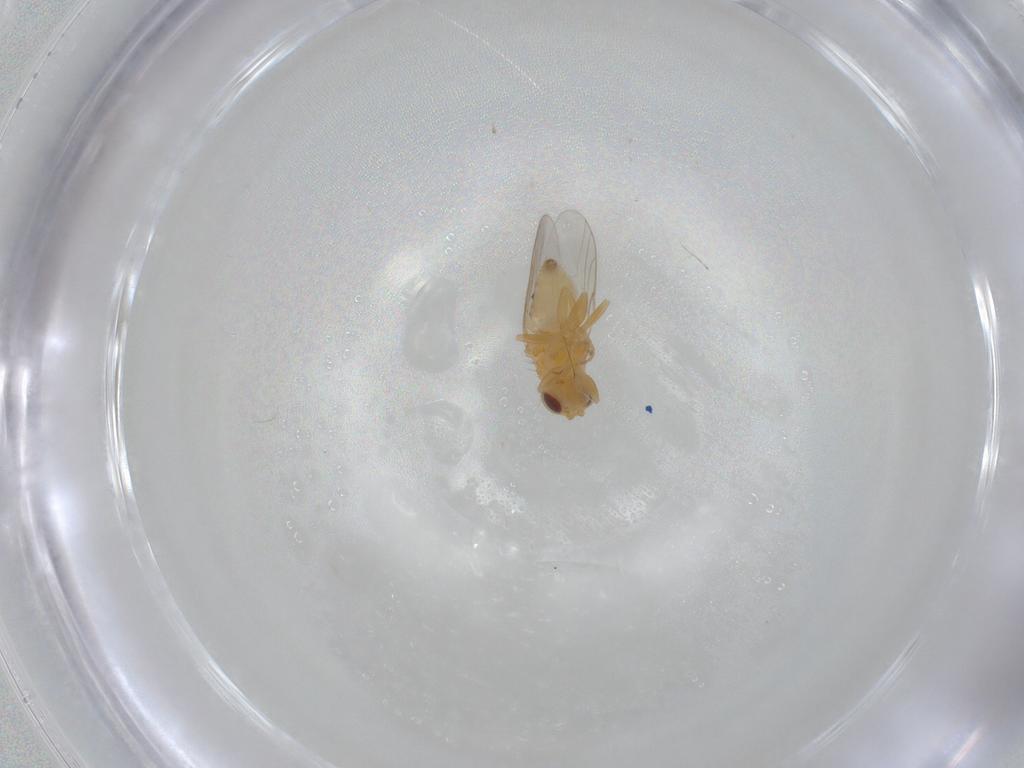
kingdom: Animalia
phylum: Arthropoda
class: Insecta
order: Diptera
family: Chloropidae
